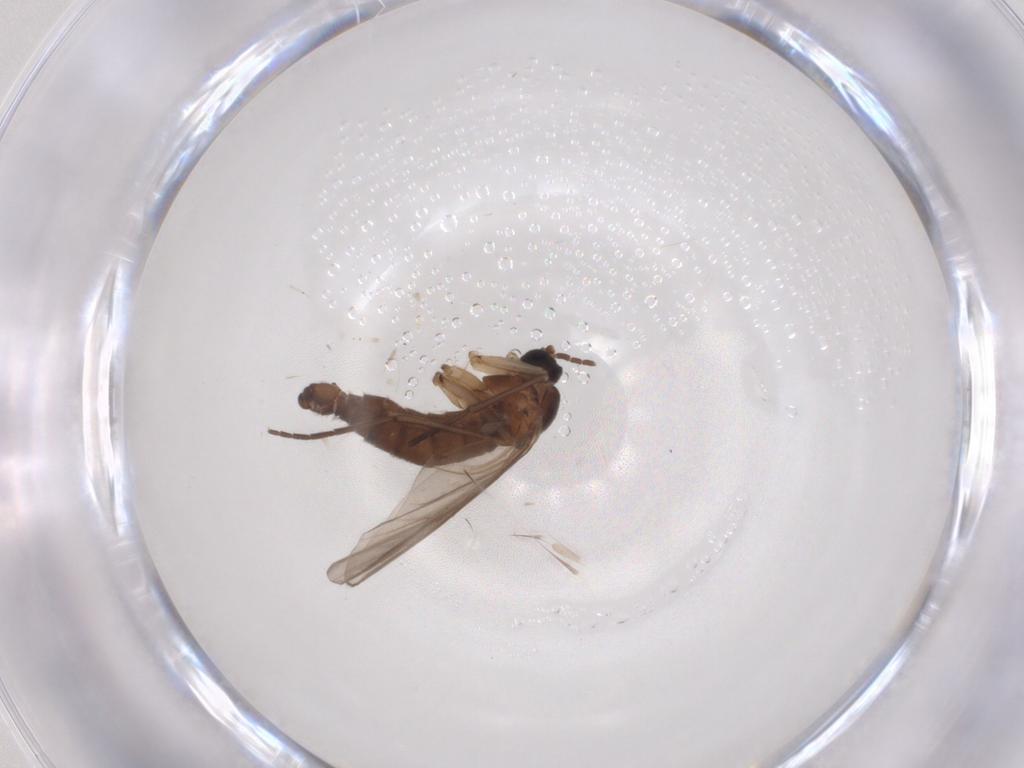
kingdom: Animalia
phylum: Arthropoda
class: Insecta
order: Diptera
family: Sciaridae
